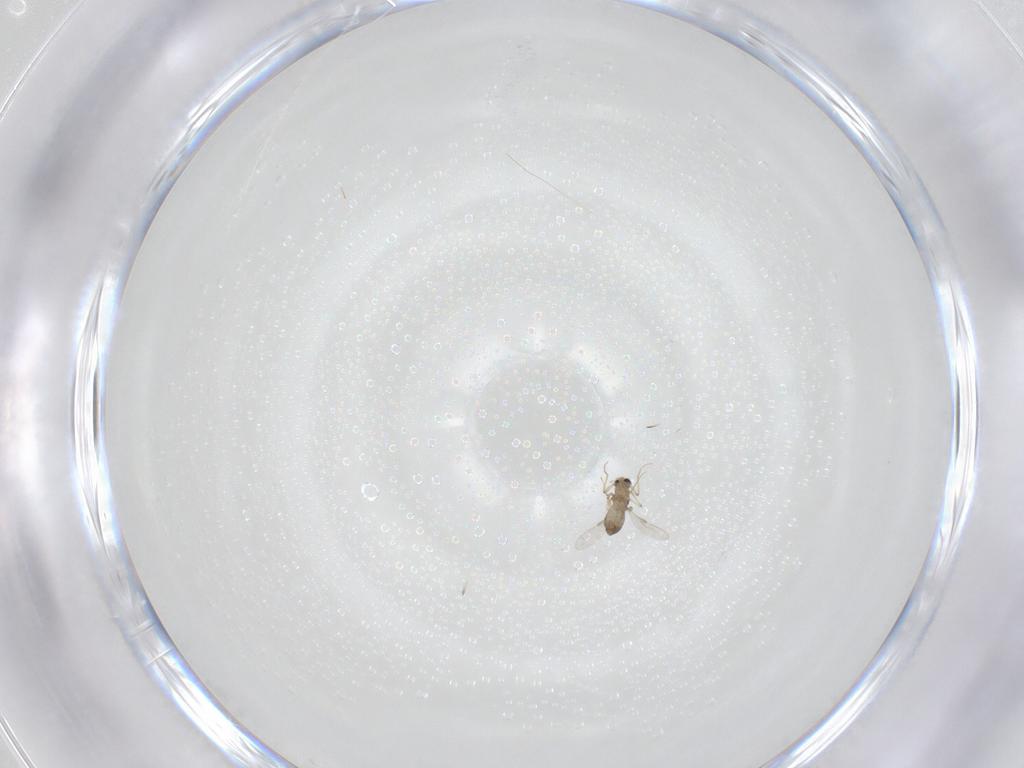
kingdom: Animalia
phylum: Arthropoda
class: Insecta
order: Diptera
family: Chironomidae
